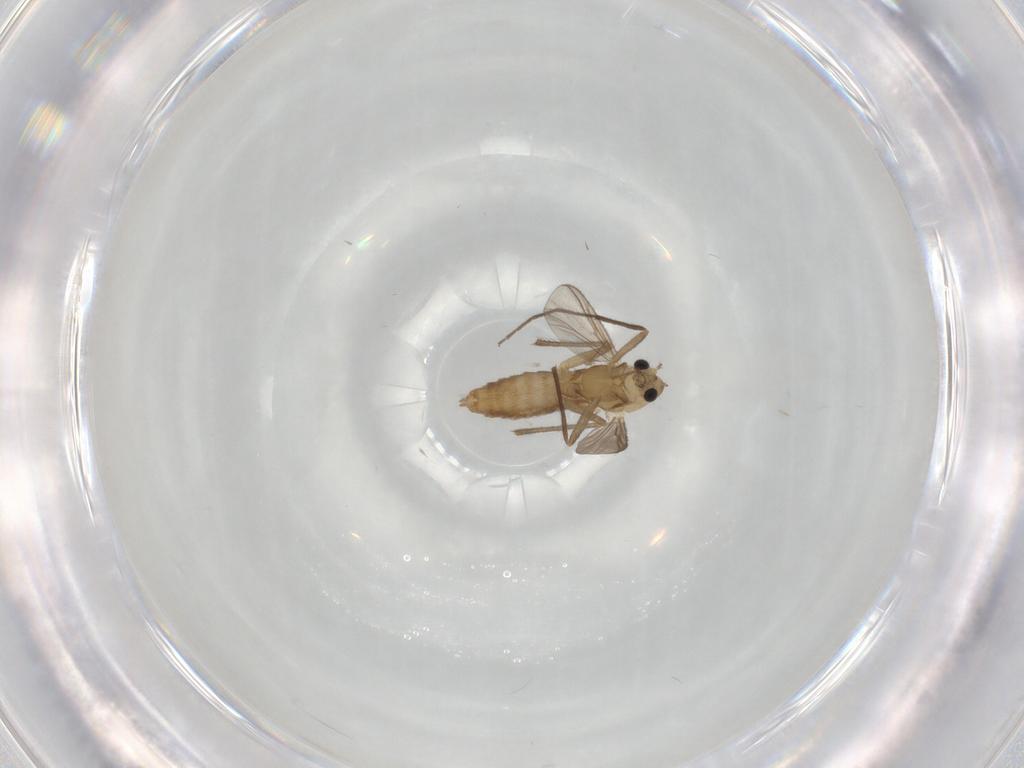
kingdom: Animalia
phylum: Arthropoda
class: Insecta
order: Diptera
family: Chironomidae
